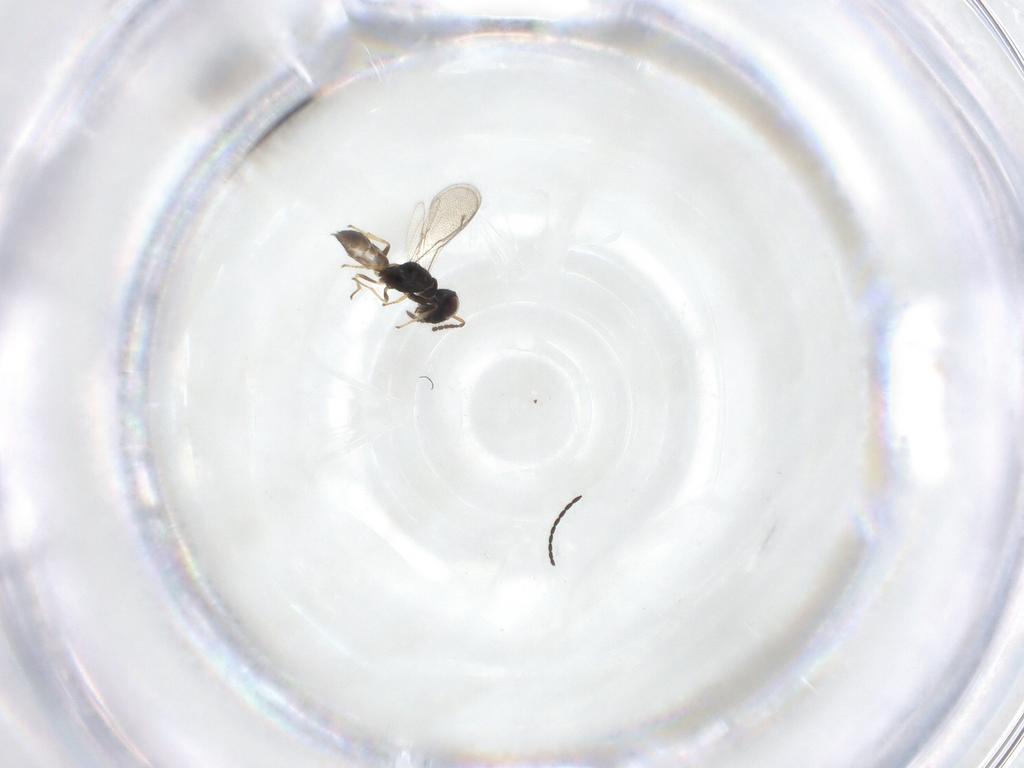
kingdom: Animalia
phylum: Arthropoda
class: Insecta
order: Hymenoptera
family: Pteromalidae
